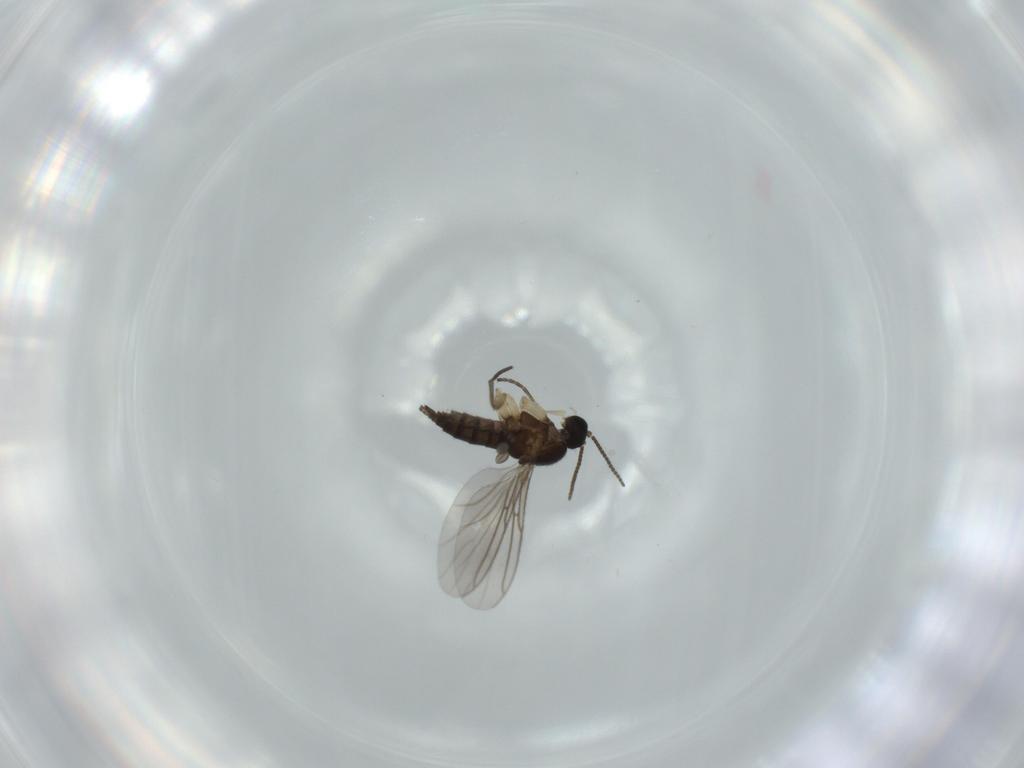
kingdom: Animalia
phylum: Arthropoda
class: Insecta
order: Diptera
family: Sciaridae
